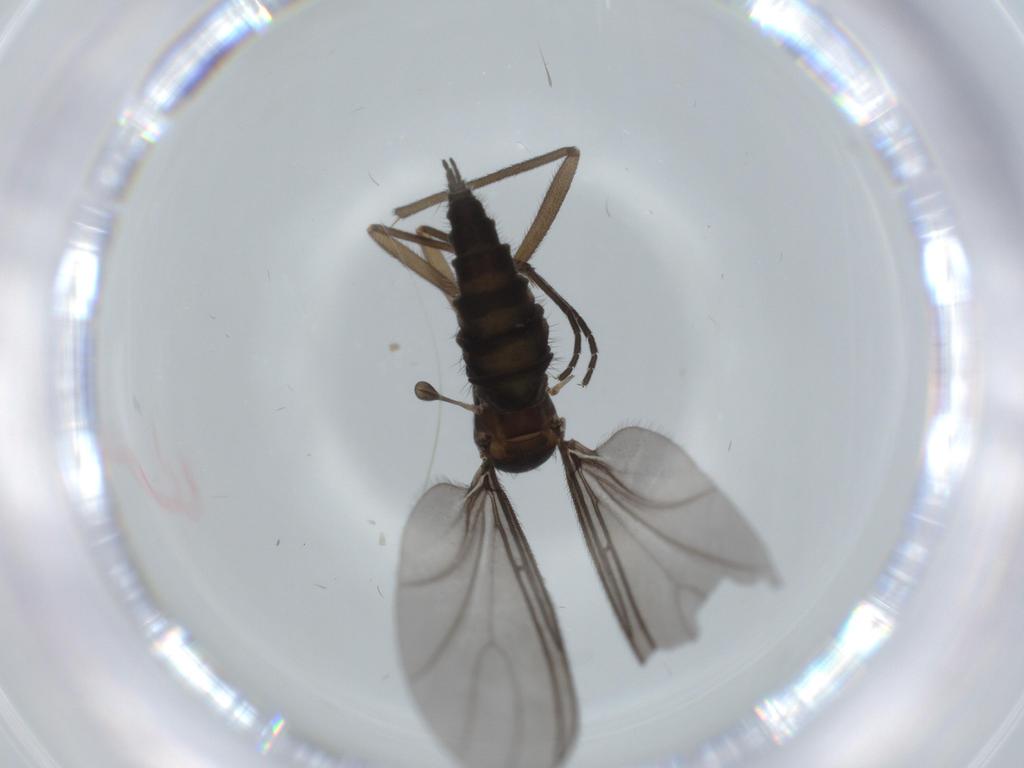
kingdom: Animalia
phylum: Arthropoda
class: Insecta
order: Diptera
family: Sciaridae
